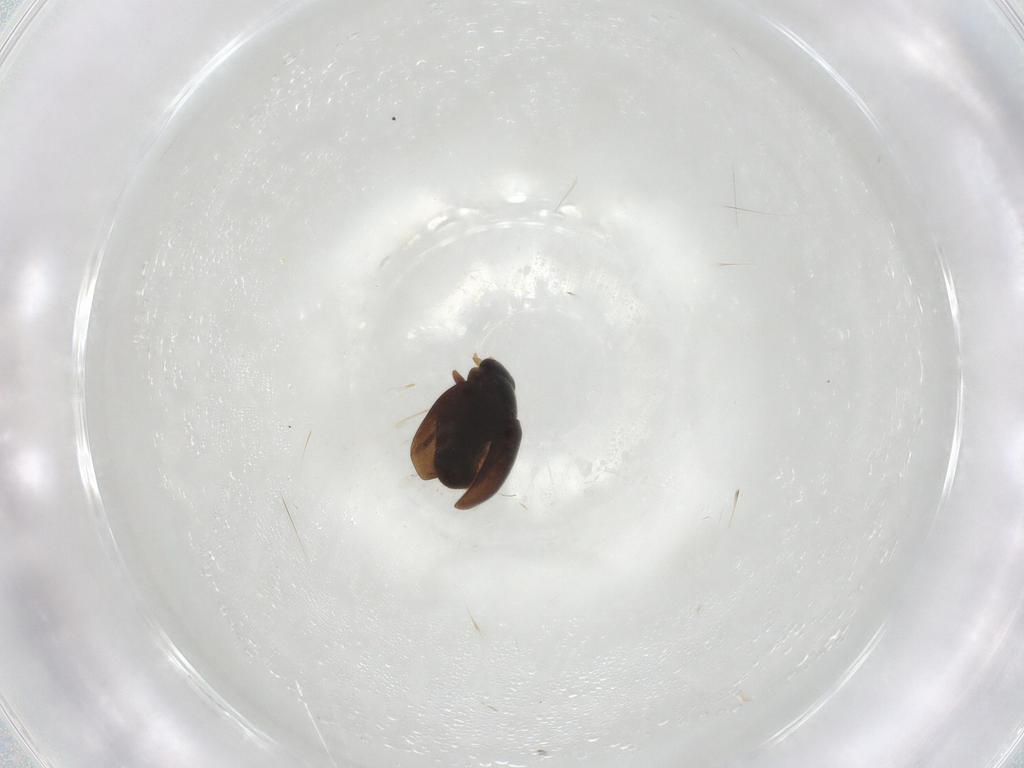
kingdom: Animalia
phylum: Arthropoda
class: Insecta
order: Coleoptera
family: Coccinellidae
